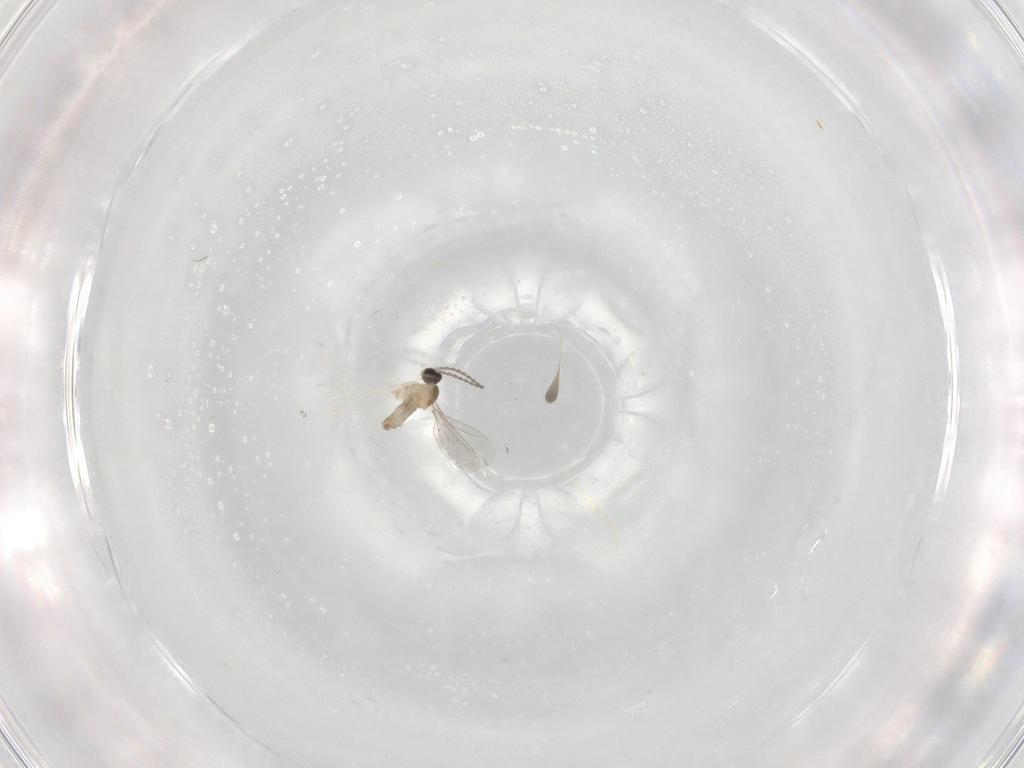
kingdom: Animalia
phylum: Arthropoda
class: Insecta
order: Diptera
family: Cecidomyiidae
